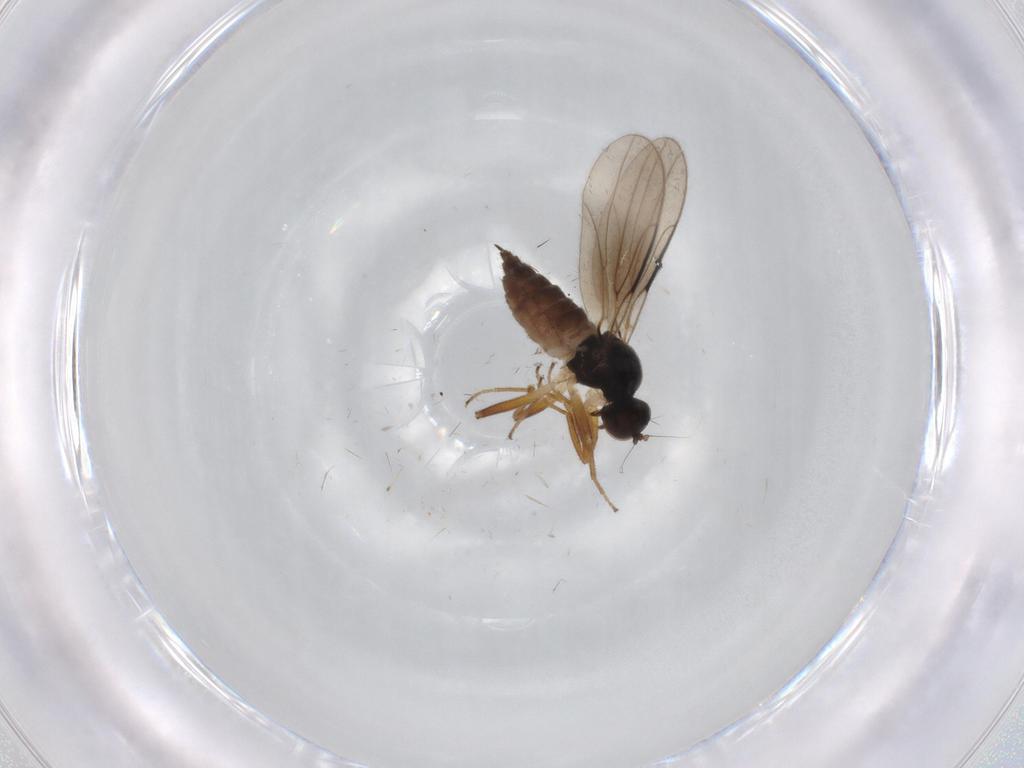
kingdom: Animalia
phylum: Arthropoda
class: Insecta
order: Diptera
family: Hybotidae
